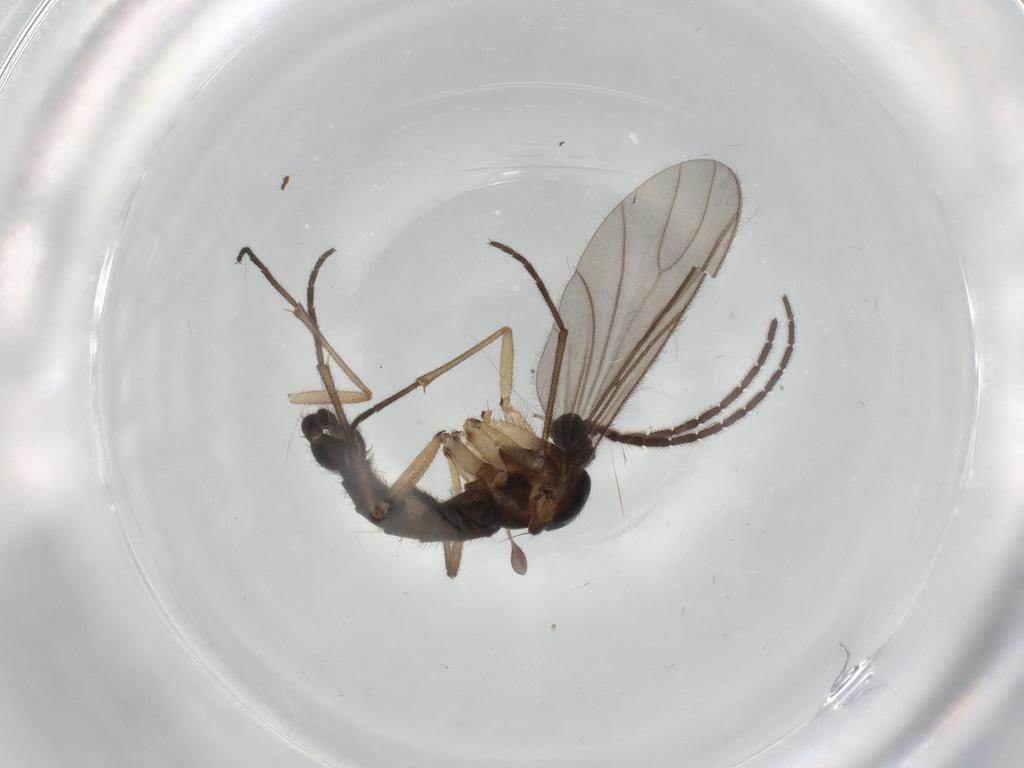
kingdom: Animalia
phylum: Arthropoda
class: Insecta
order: Diptera
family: Sciaridae
